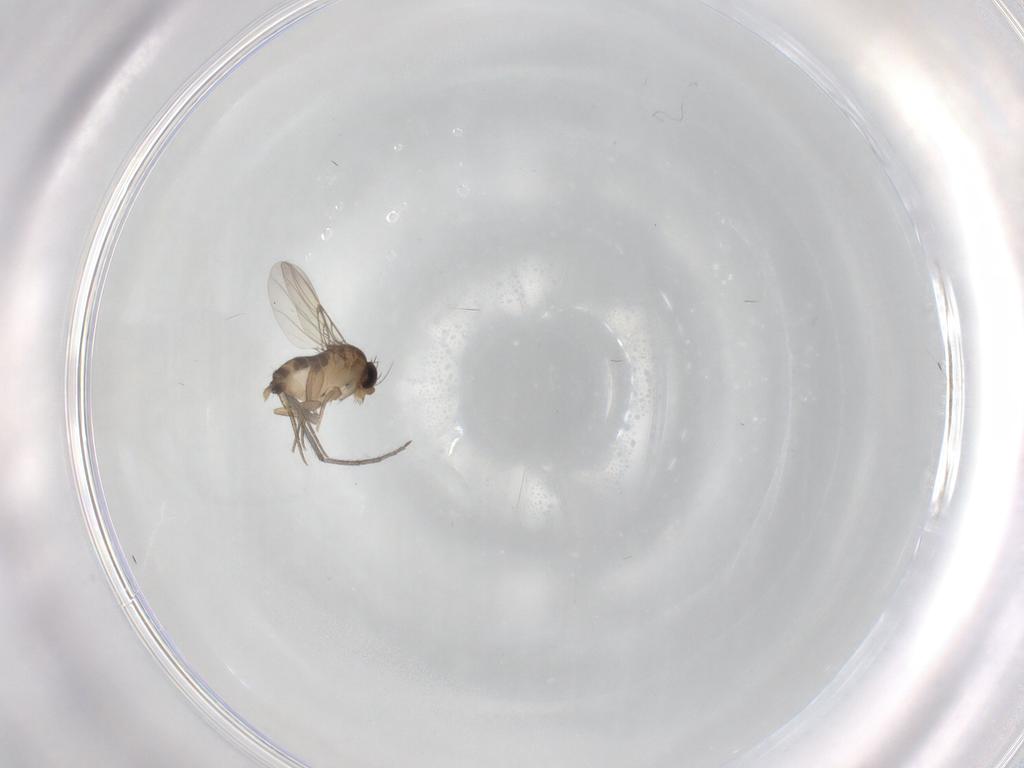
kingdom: Animalia
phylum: Arthropoda
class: Insecta
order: Diptera
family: Phoridae
